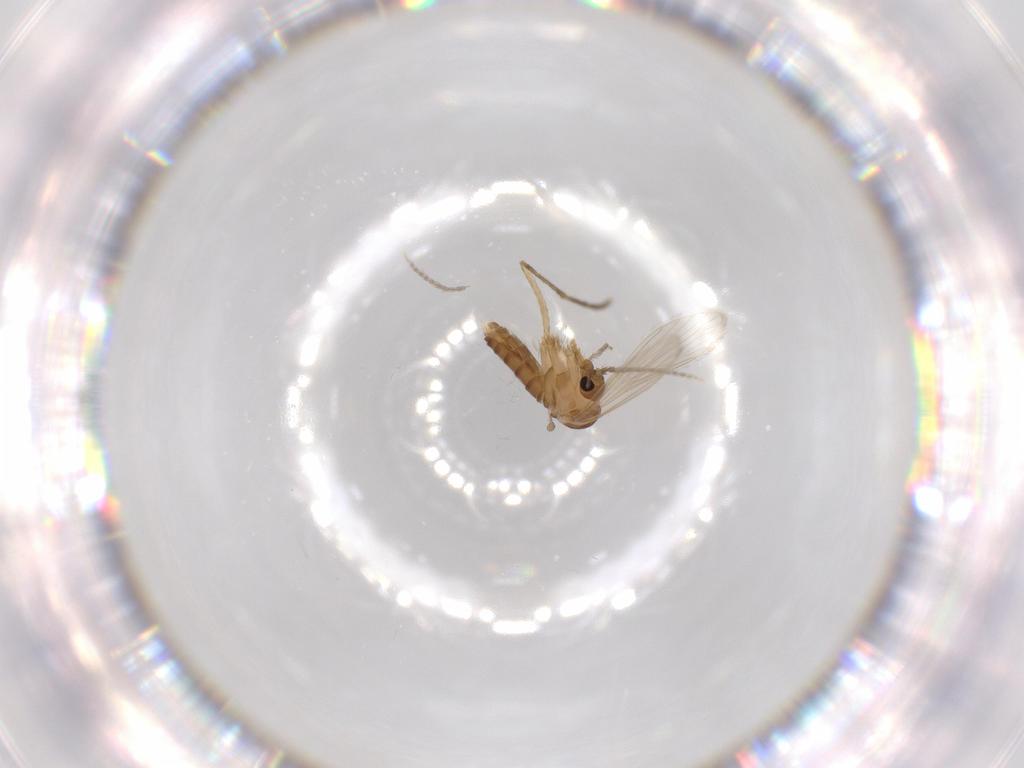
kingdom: Animalia
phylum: Arthropoda
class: Insecta
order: Diptera
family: Psychodidae
